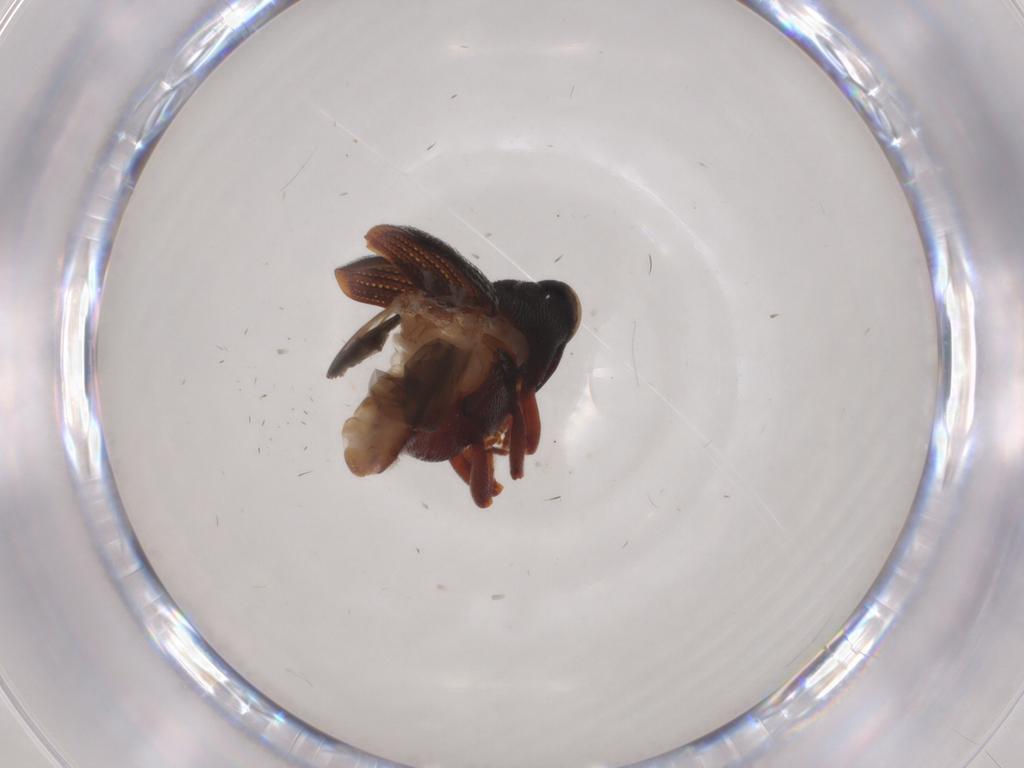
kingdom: Animalia
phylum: Arthropoda
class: Insecta
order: Coleoptera
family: Curculionidae
